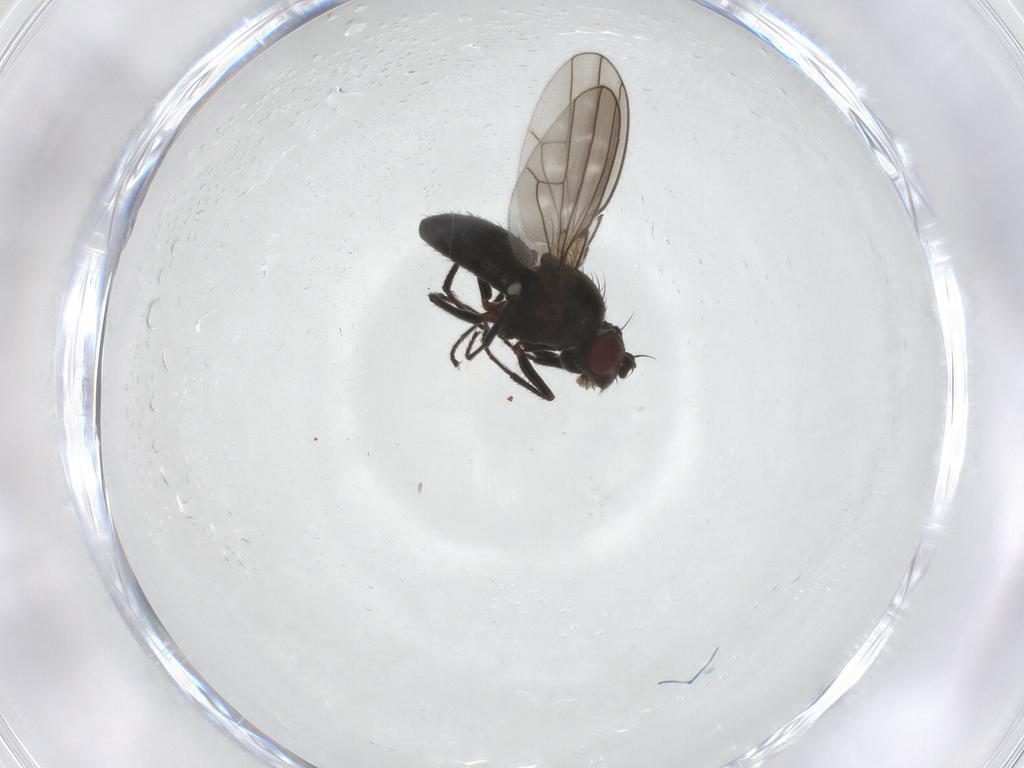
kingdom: Animalia
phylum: Arthropoda
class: Insecta
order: Diptera
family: Ephydridae
